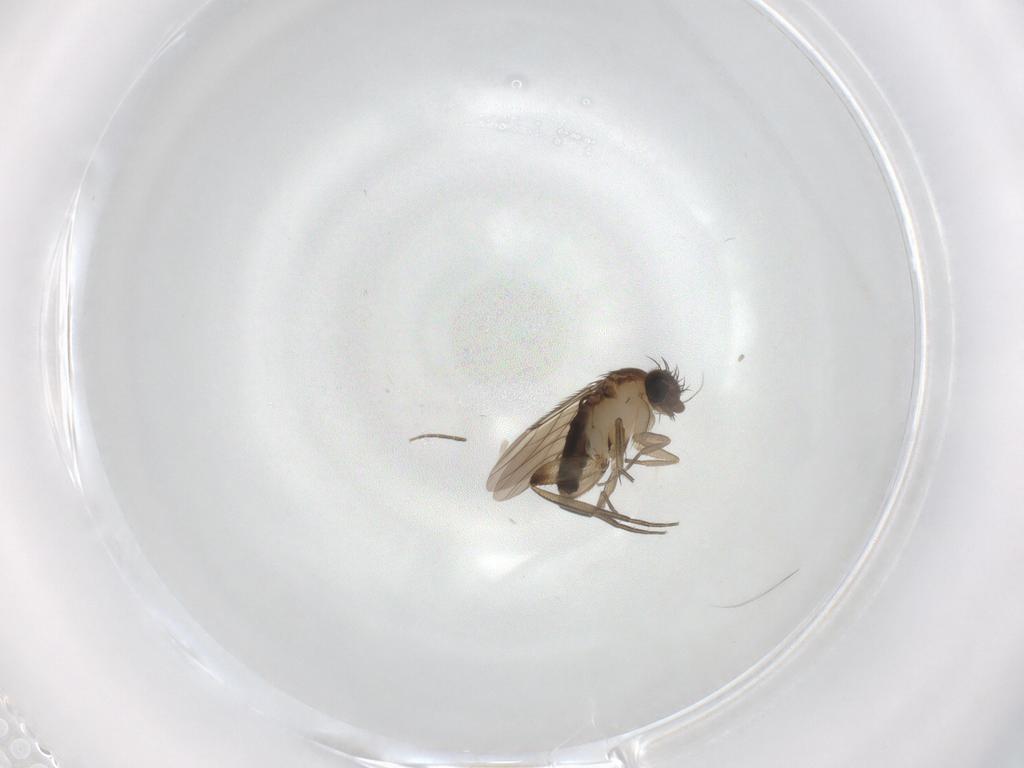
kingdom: Animalia
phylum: Arthropoda
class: Insecta
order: Diptera
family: Phoridae
